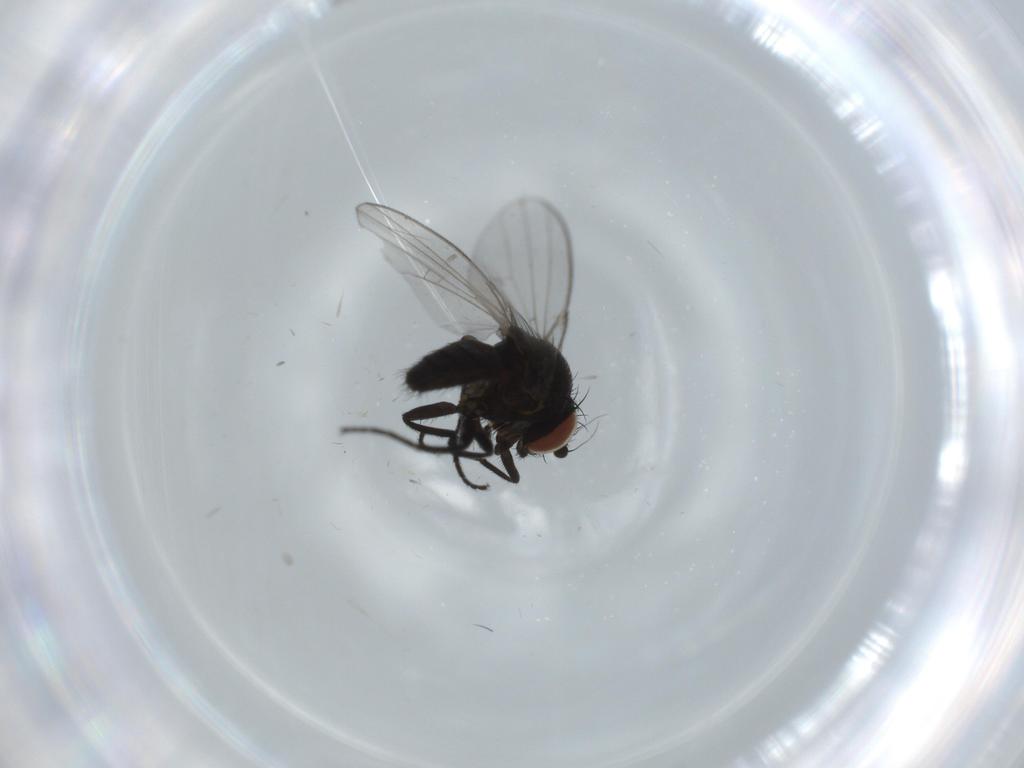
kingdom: Animalia
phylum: Arthropoda
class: Insecta
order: Diptera
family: Milichiidae
